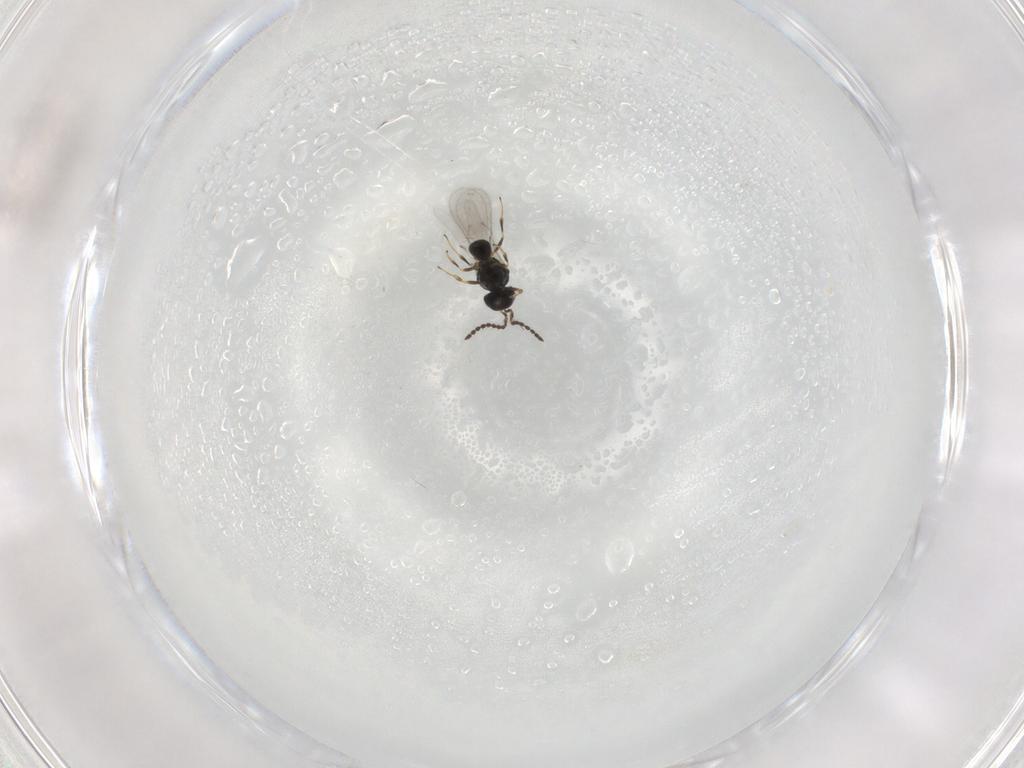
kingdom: Animalia
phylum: Arthropoda
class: Insecta
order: Hymenoptera
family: Scelionidae
